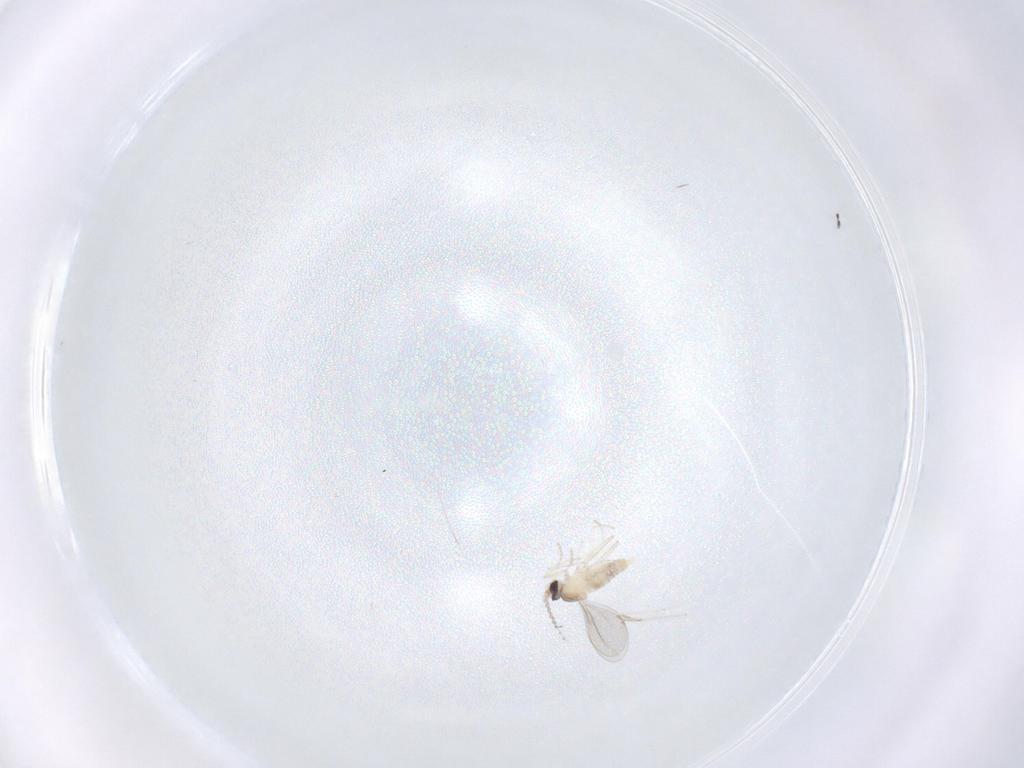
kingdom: Animalia
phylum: Arthropoda
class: Insecta
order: Diptera
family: Cecidomyiidae
